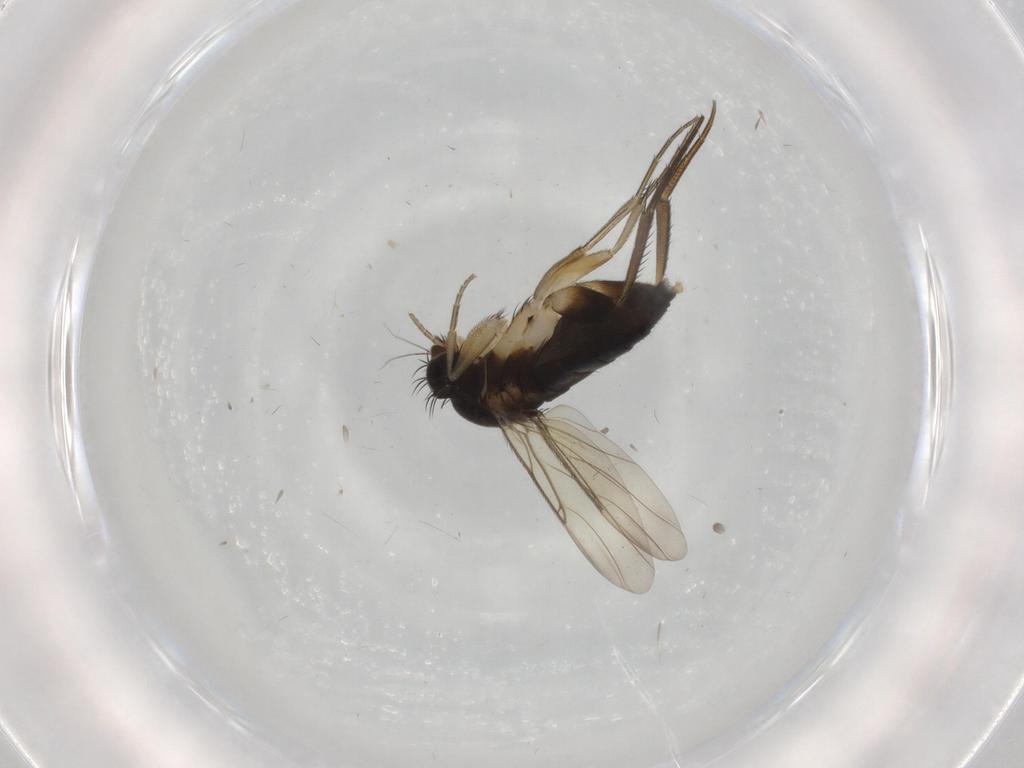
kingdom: Animalia
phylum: Arthropoda
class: Insecta
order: Diptera
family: Phoridae
